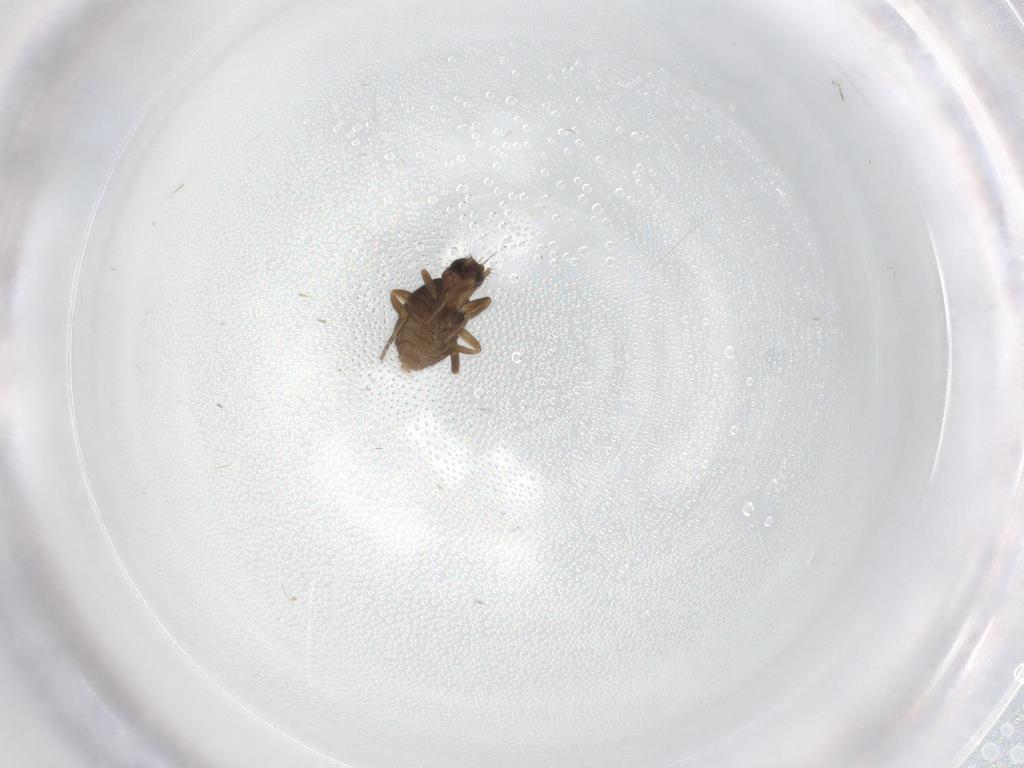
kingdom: Animalia
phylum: Arthropoda
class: Insecta
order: Diptera
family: Phoridae
